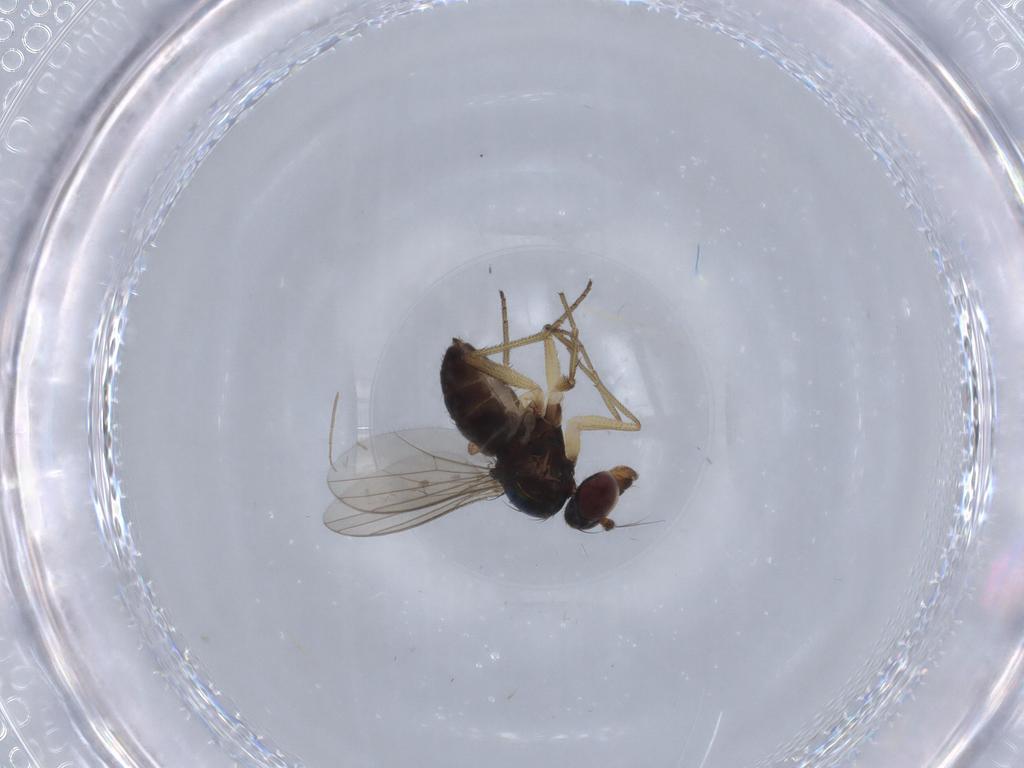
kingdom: Animalia
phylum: Arthropoda
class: Insecta
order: Diptera
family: Dolichopodidae
